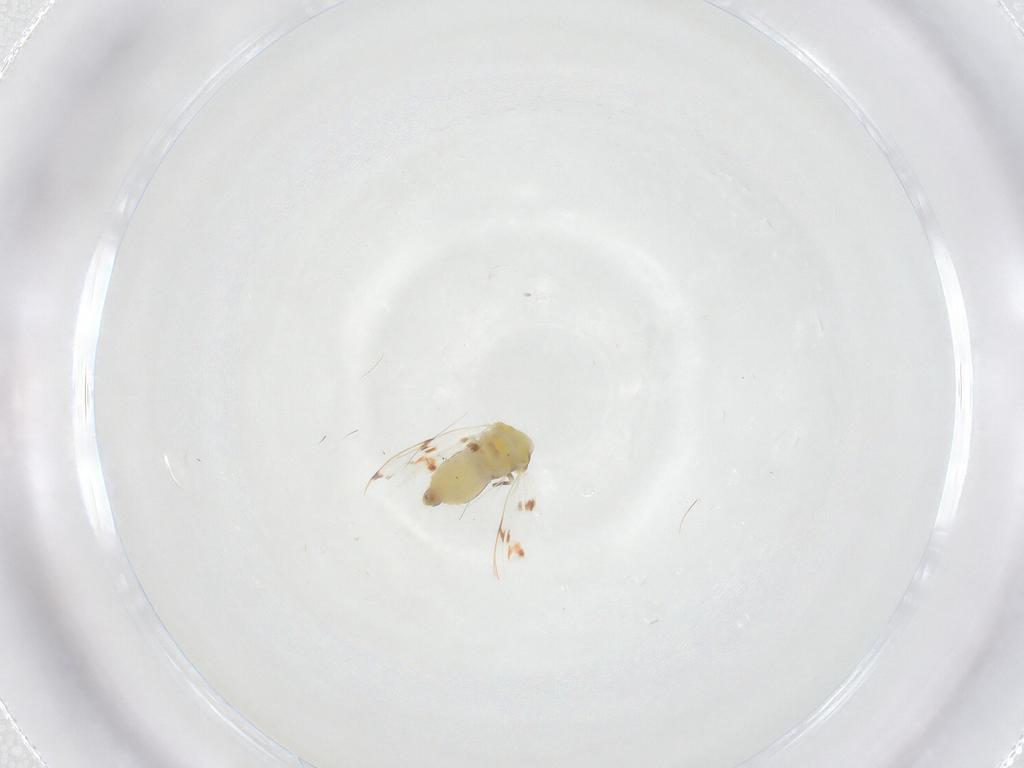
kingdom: Animalia
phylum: Arthropoda
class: Insecta
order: Hemiptera
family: Aleyrodidae
